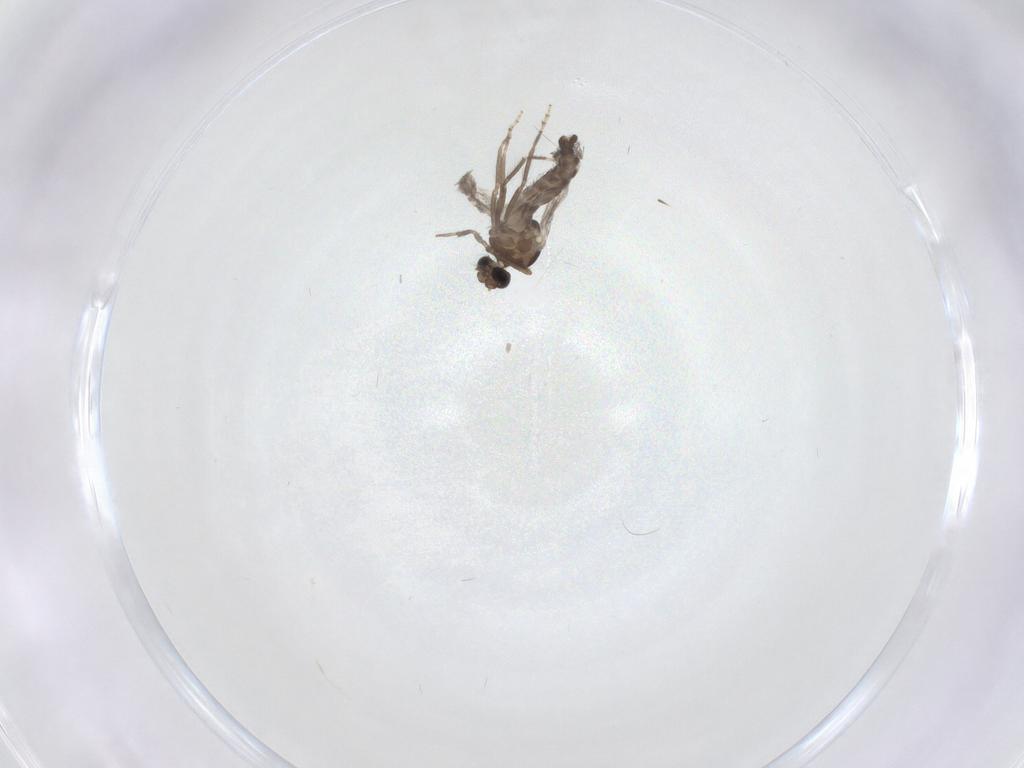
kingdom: Animalia
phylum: Arthropoda
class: Insecta
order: Diptera
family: Ceratopogonidae
